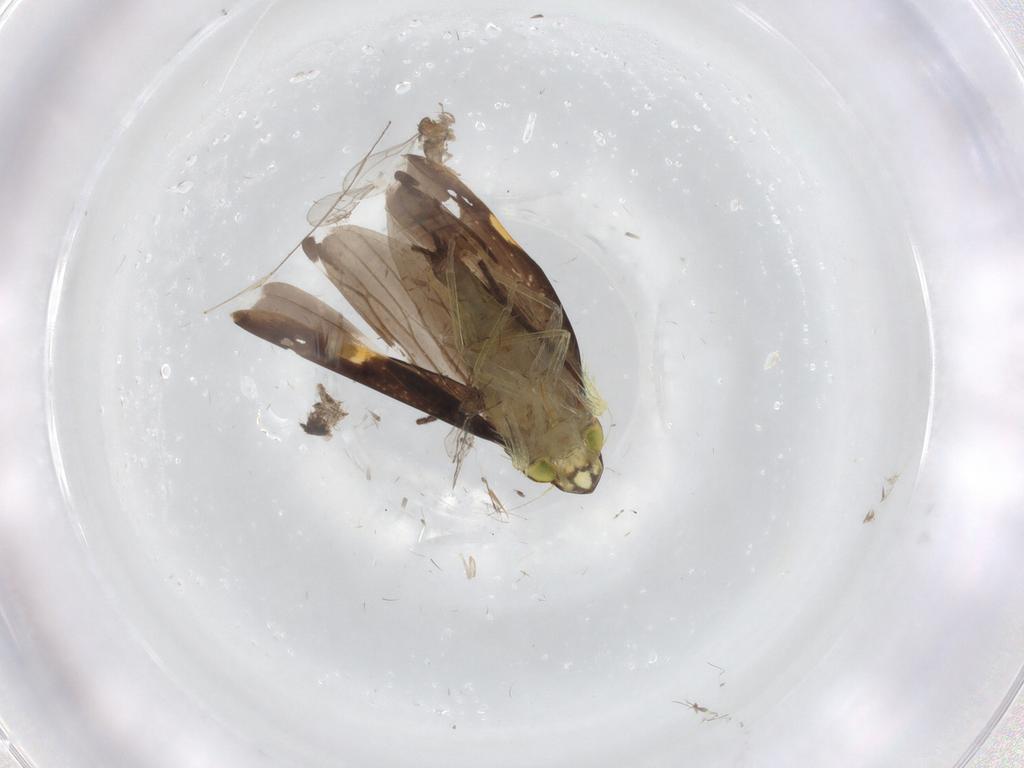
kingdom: Animalia
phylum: Arthropoda
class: Insecta
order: Hemiptera
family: Cicadellidae
